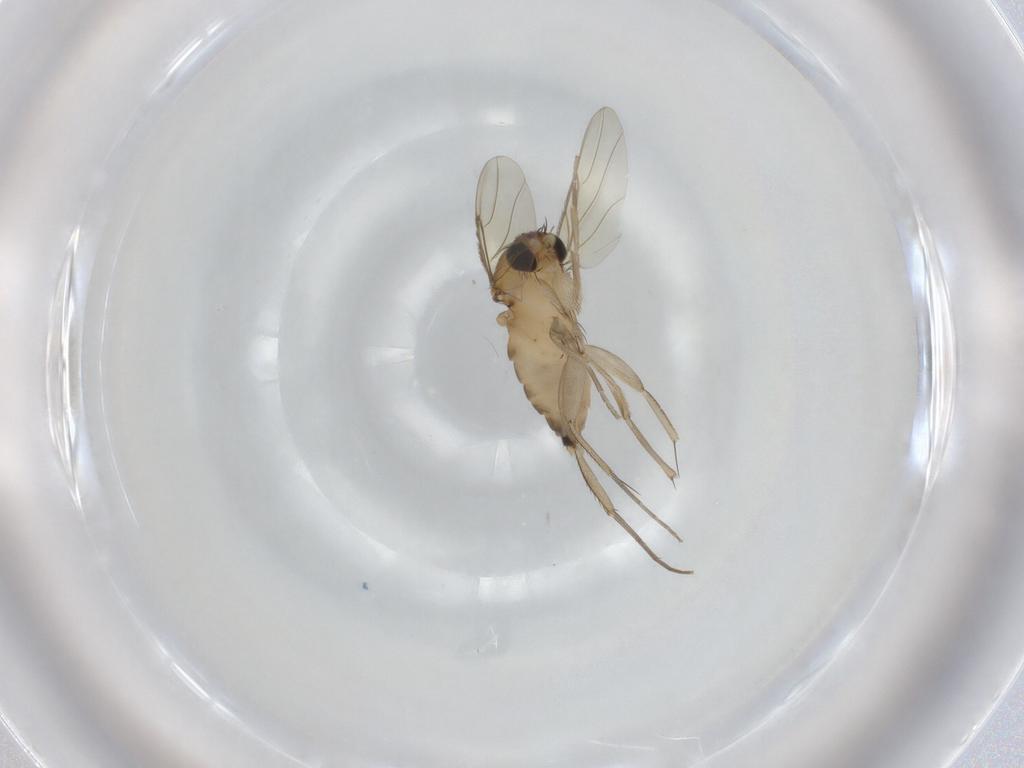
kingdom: Animalia
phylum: Arthropoda
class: Insecta
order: Diptera
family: Phoridae
